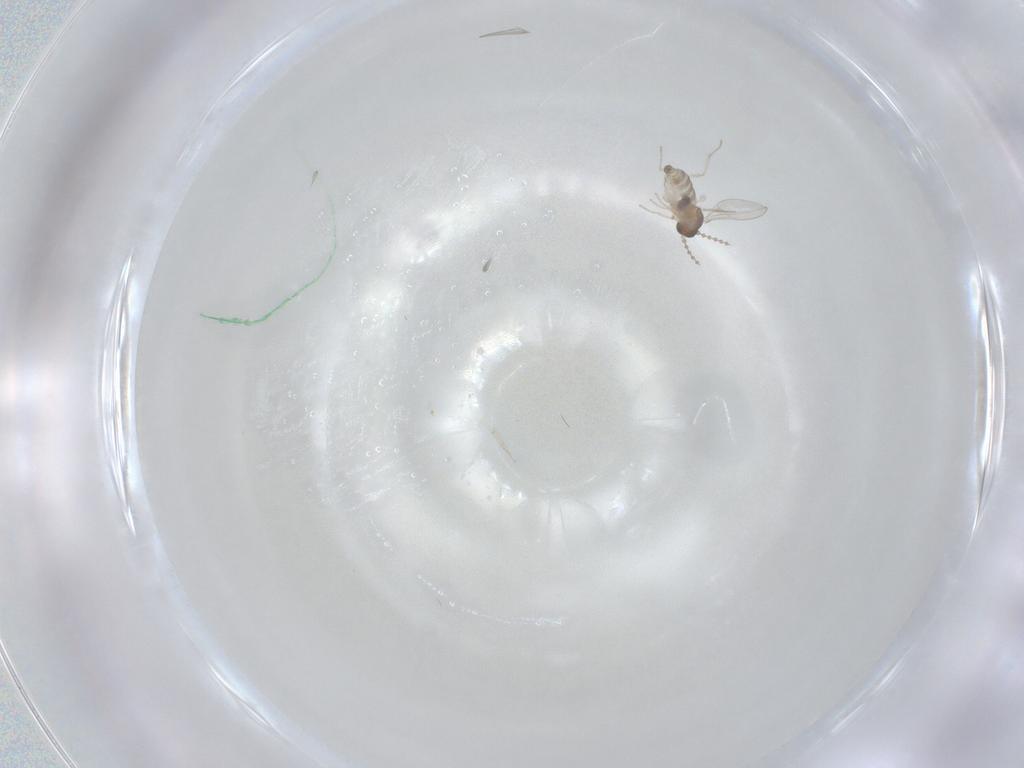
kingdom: Animalia
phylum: Arthropoda
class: Insecta
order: Diptera
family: Cecidomyiidae
